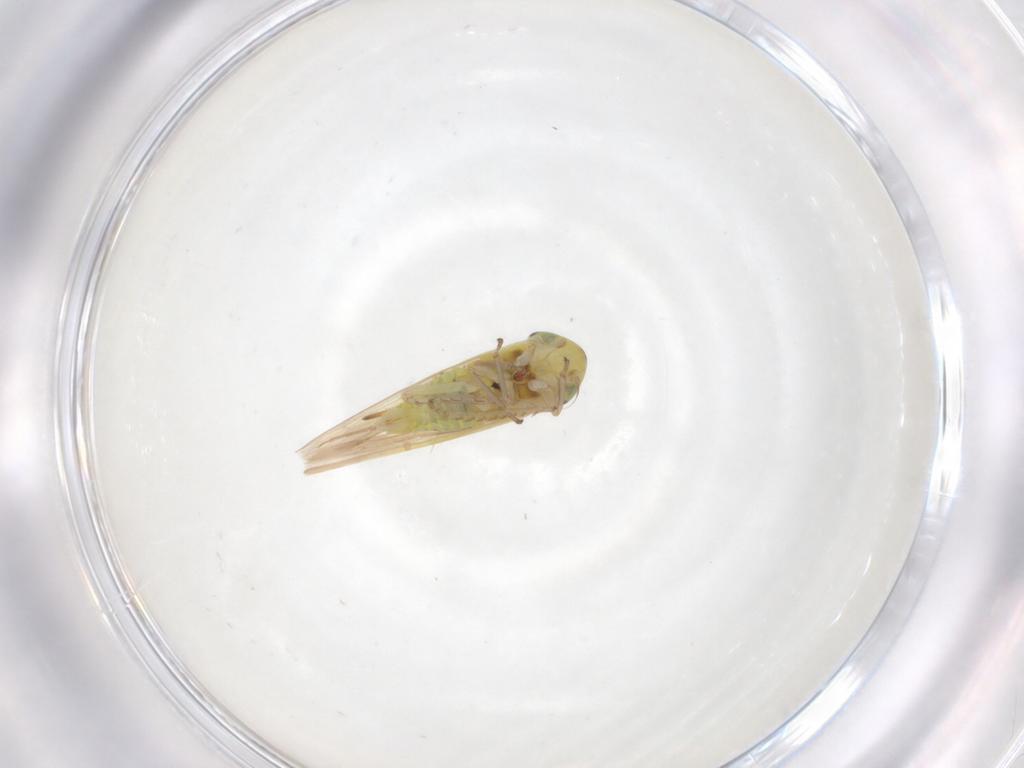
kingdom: Animalia
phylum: Arthropoda
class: Insecta
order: Hemiptera
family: Cicadellidae
